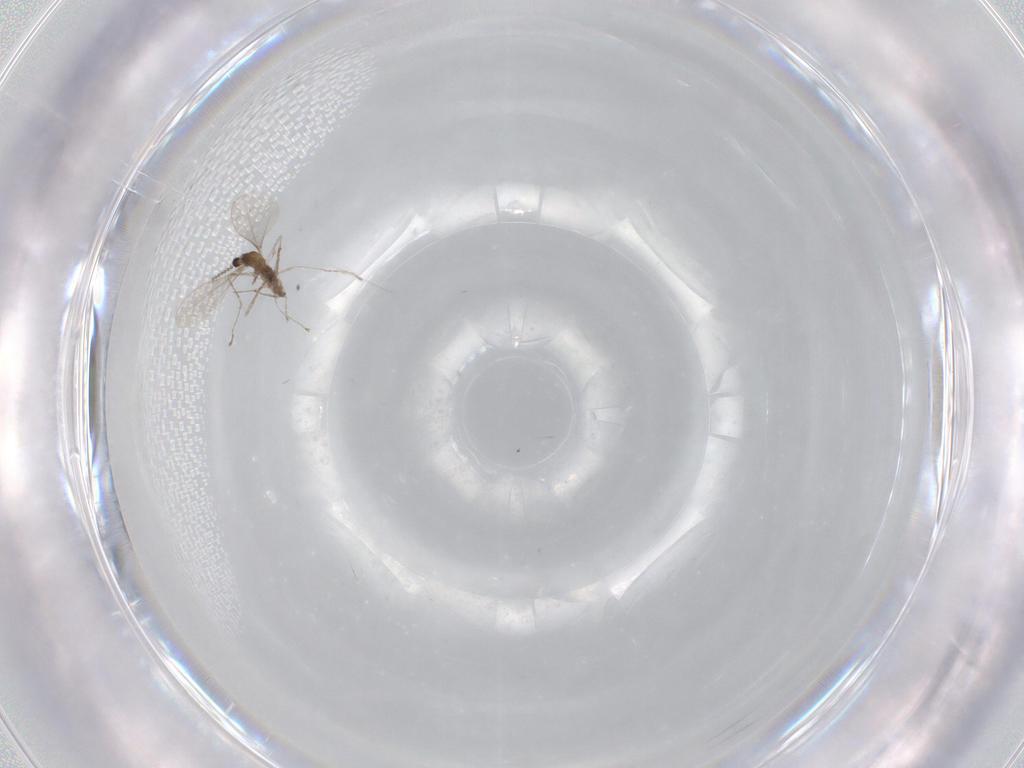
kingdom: Animalia
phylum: Arthropoda
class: Insecta
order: Diptera
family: Cecidomyiidae
